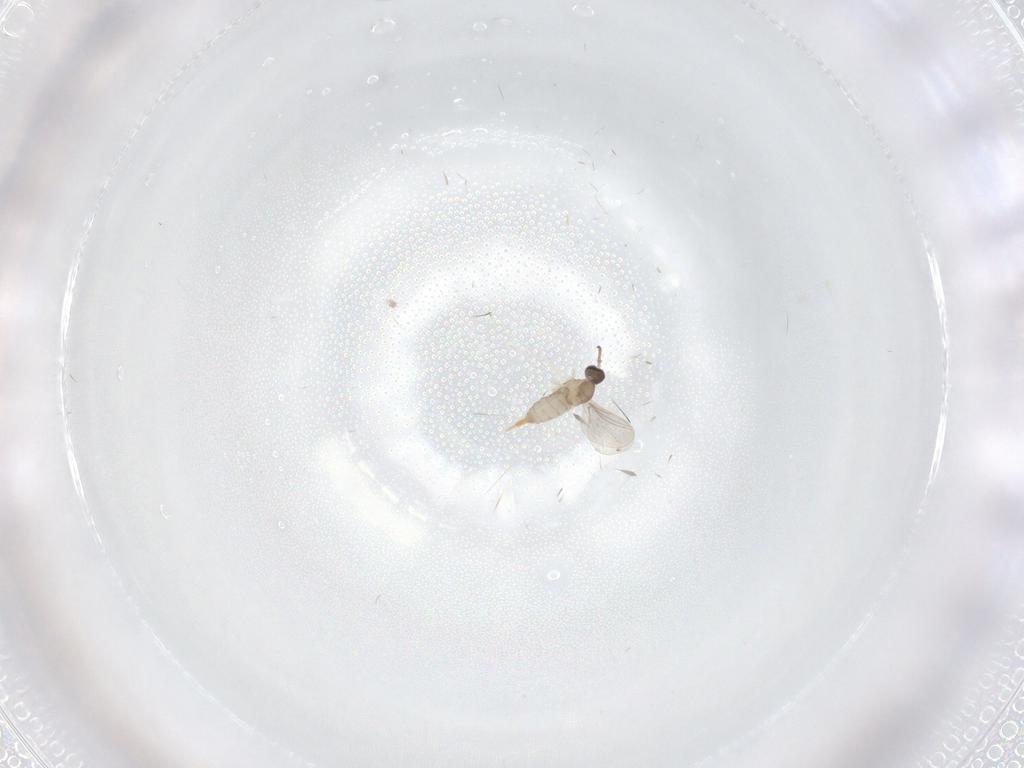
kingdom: Animalia
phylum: Arthropoda
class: Insecta
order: Diptera
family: Cecidomyiidae
